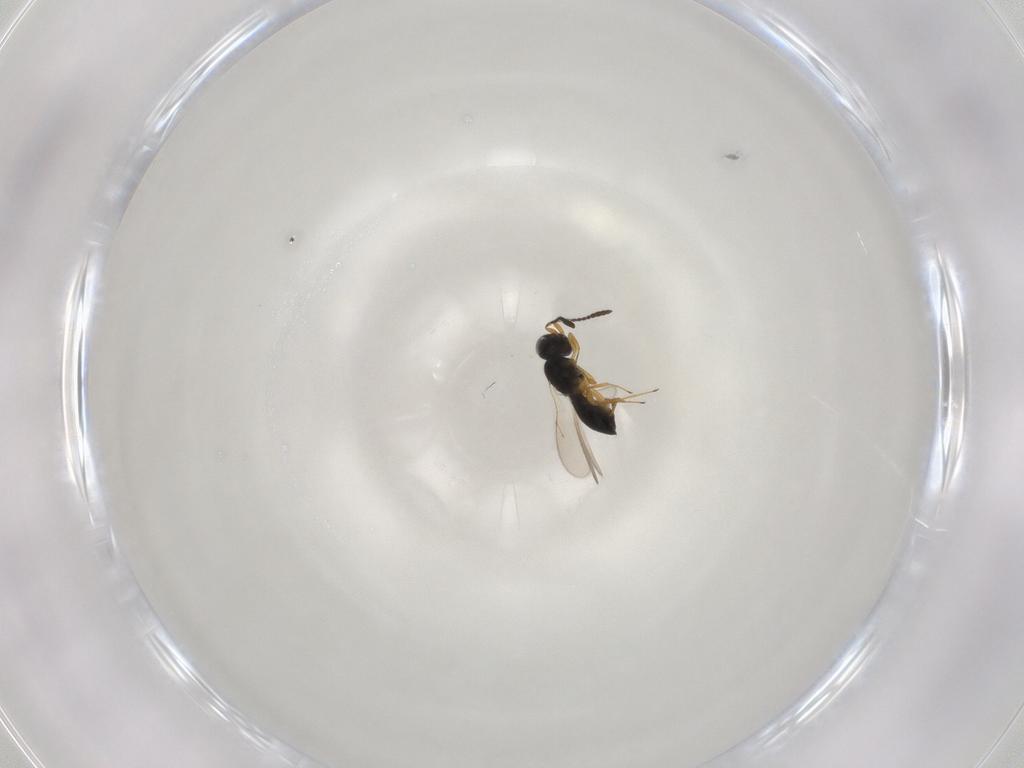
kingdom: Animalia
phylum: Arthropoda
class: Insecta
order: Hymenoptera
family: Scelionidae
